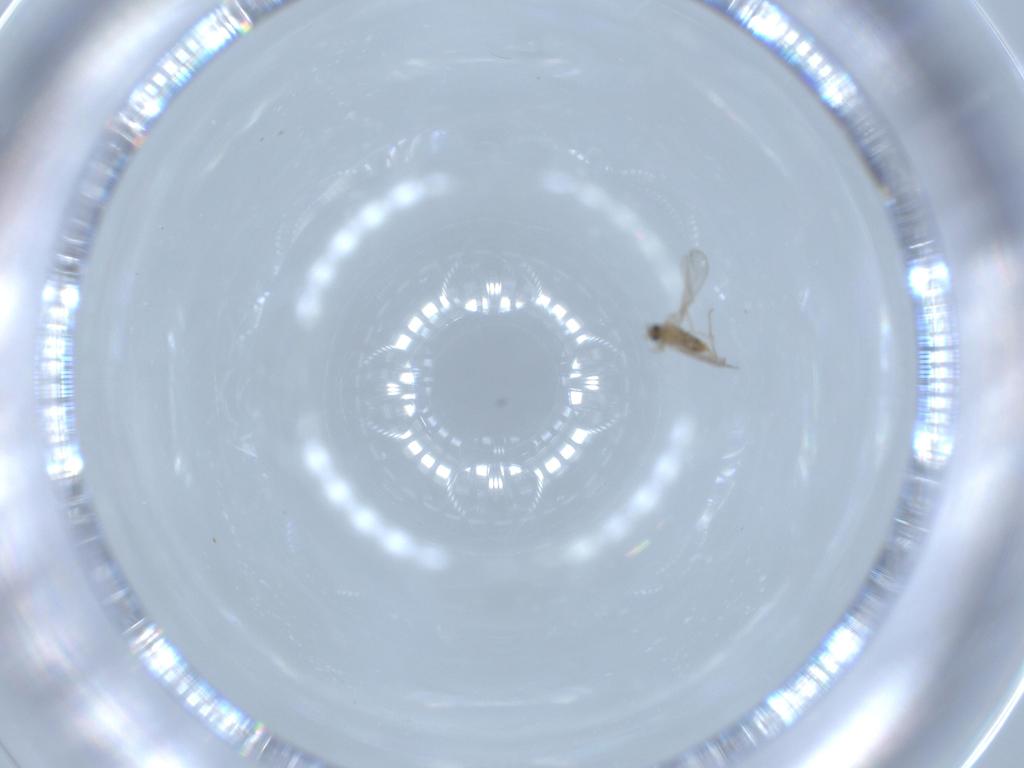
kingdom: Animalia
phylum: Arthropoda
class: Insecta
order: Diptera
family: Cecidomyiidae
